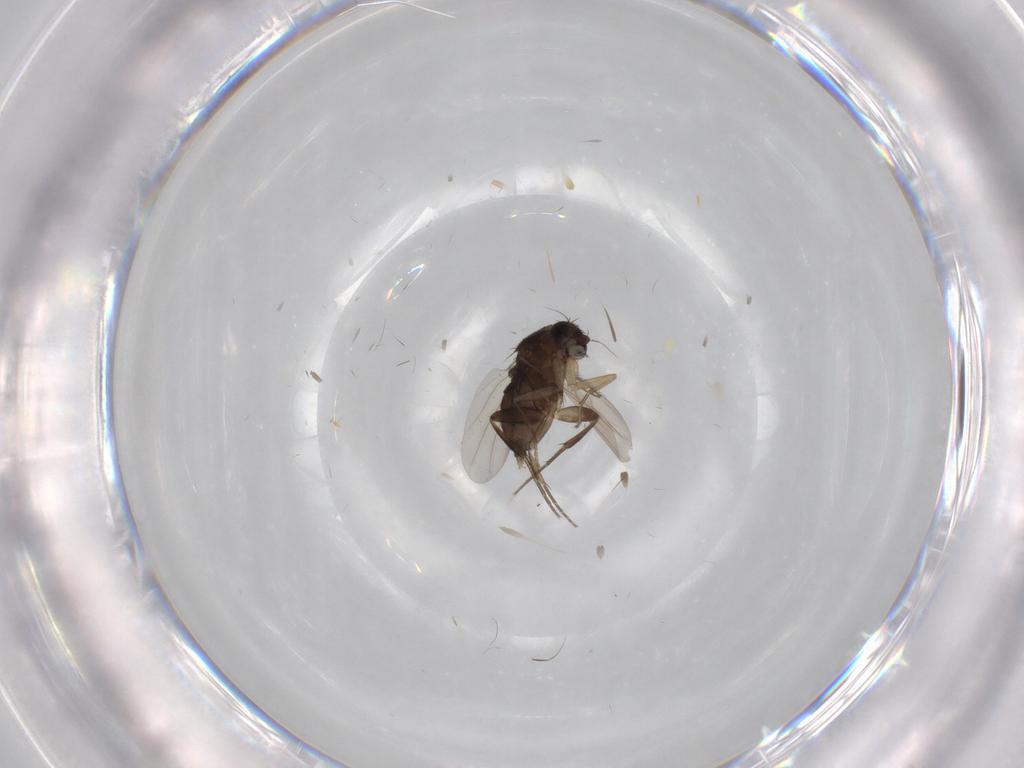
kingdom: Animalia
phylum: Arthropoda
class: Insecta
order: Diptera
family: Phoridae
